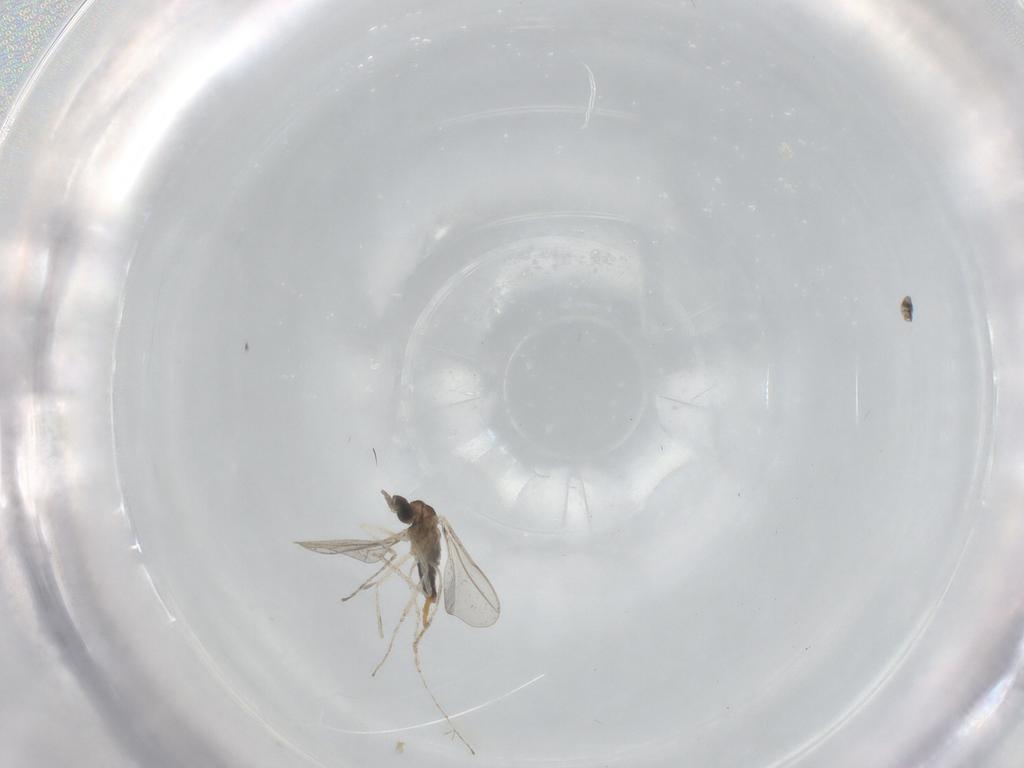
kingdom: Animalia
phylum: Arthropoda
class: Insecta
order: Diptera
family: Cecidomyiidae
